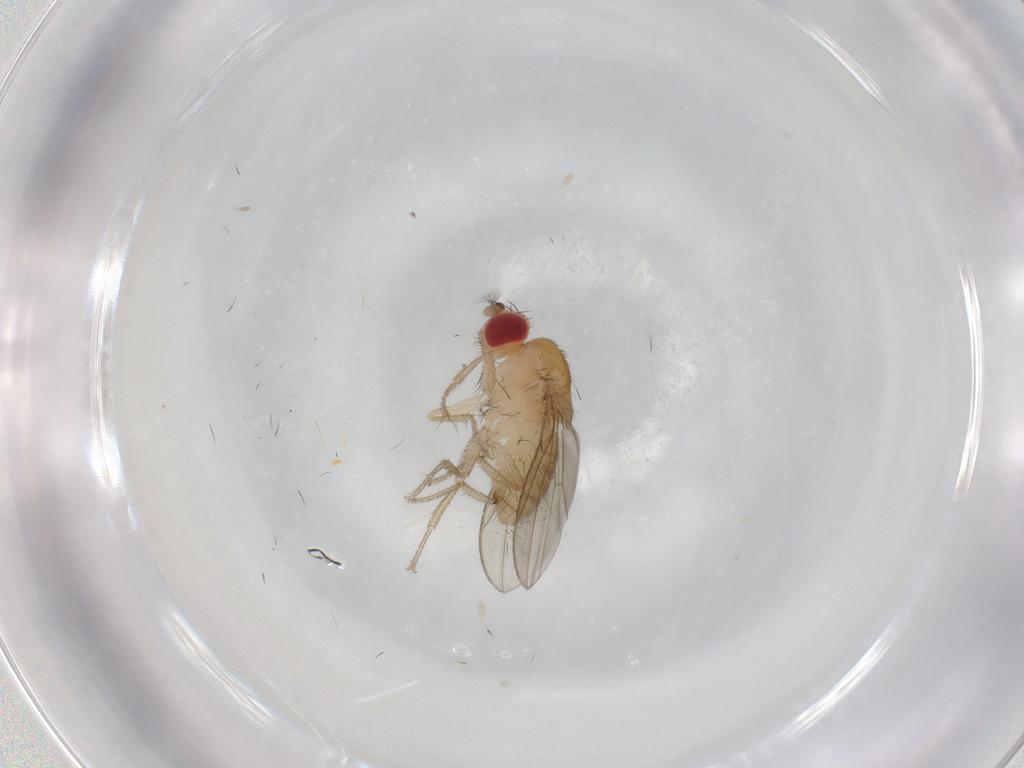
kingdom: Animalia
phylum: Arthropoda
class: Insecta
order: Diptera
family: Drosophilidae
